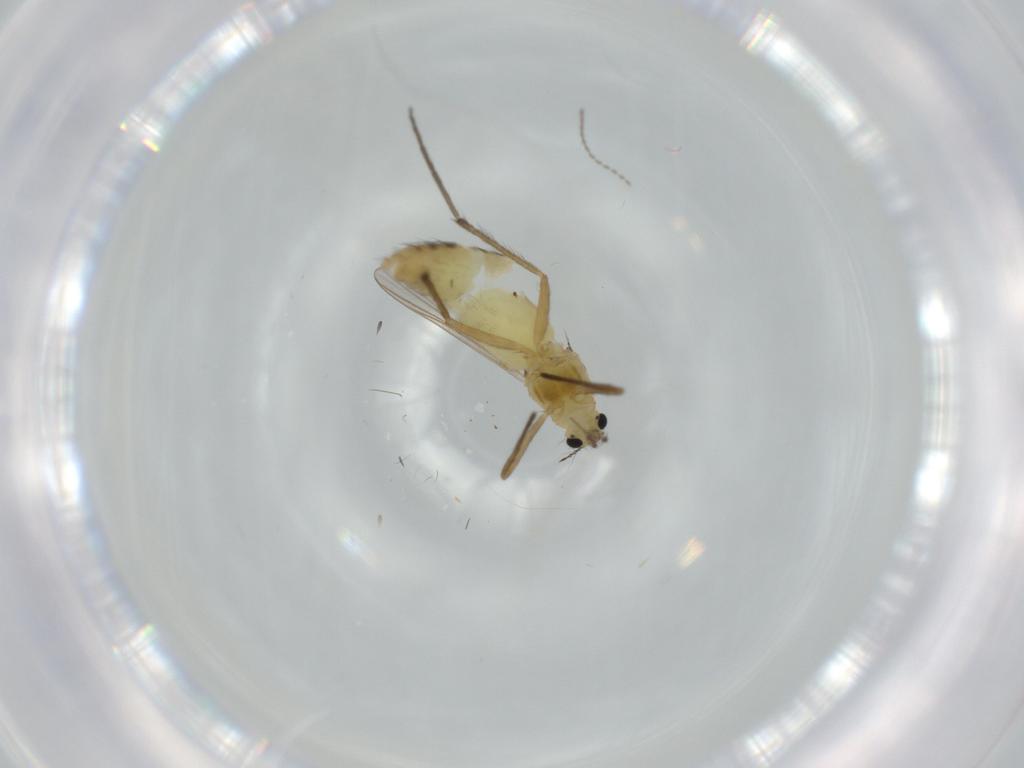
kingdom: Animalia
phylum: Arthropoda
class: Insecta
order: Diptera
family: Chironomidae
